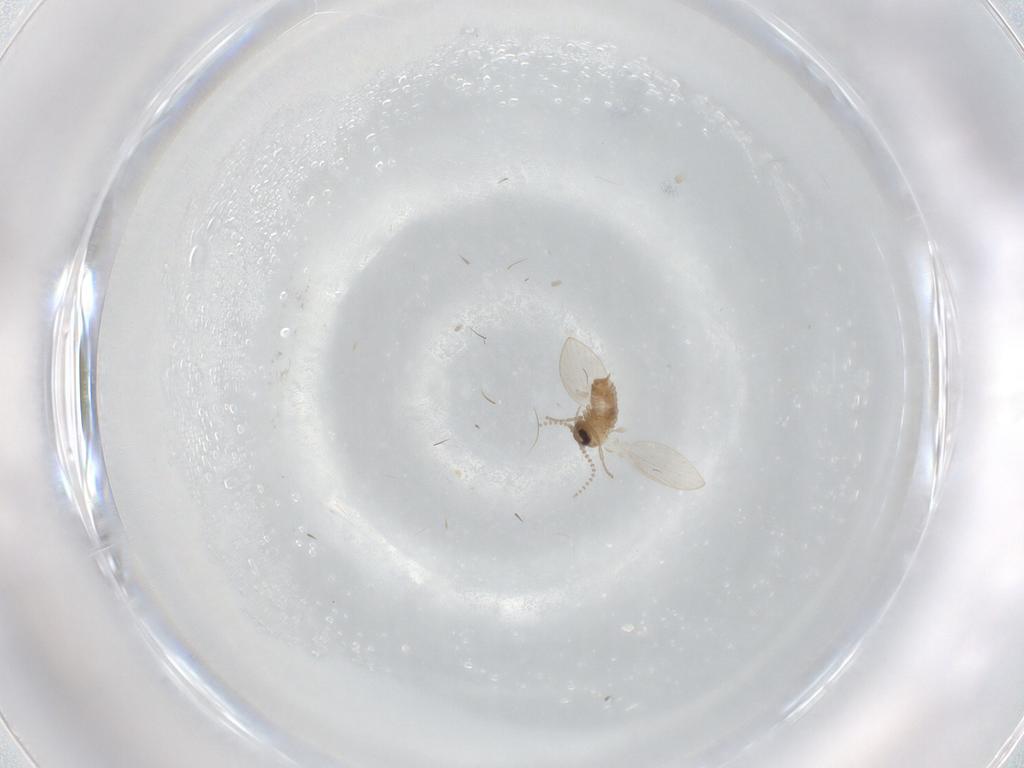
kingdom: Animalia
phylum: Arthropoda
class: Insecta
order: Diptera
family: Psychodidae
